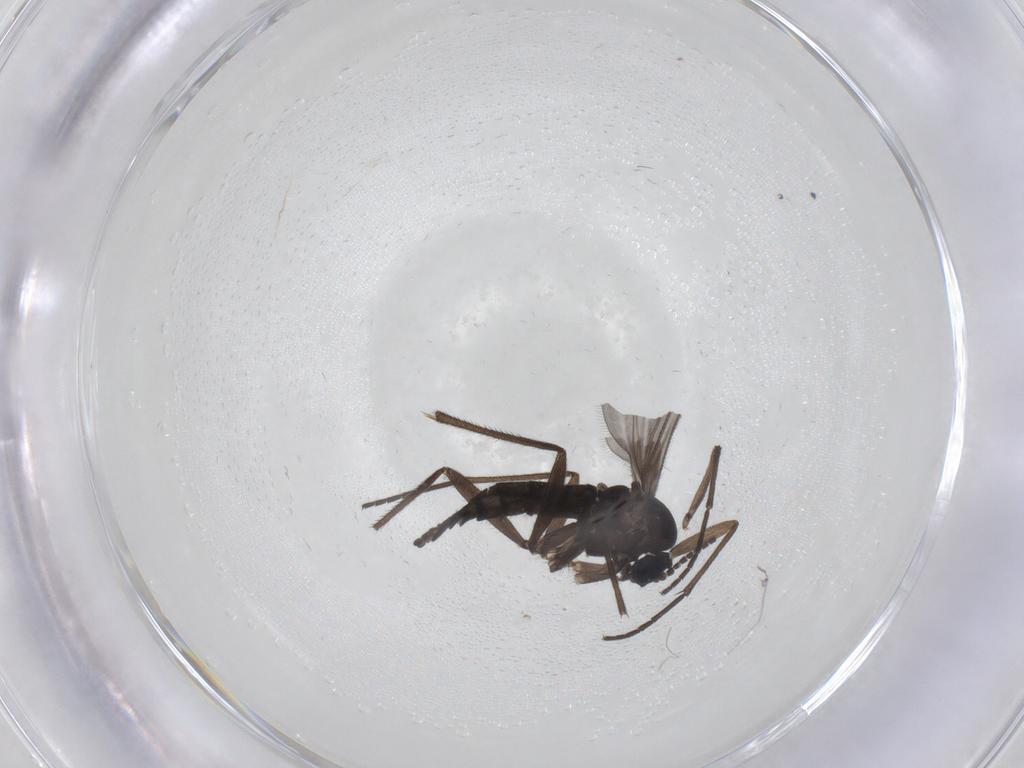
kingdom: Animalia
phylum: Arthropoda
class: Insecta
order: Diptera
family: Sciaridae
